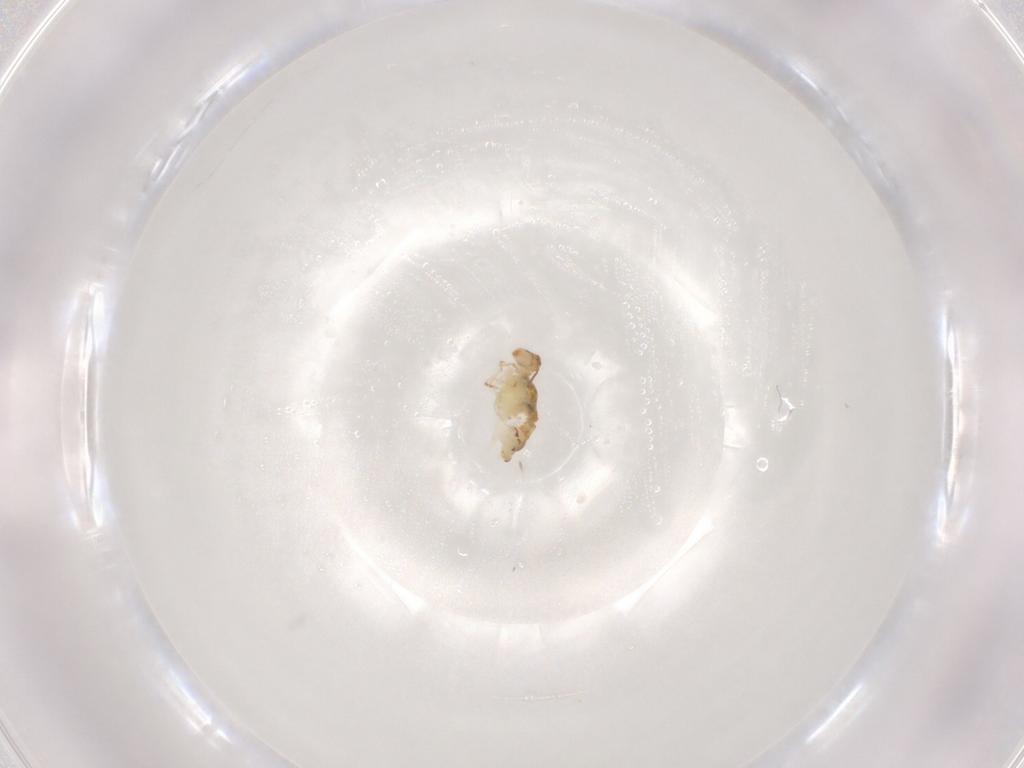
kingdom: Animalia
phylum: Arthropoda
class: Collembola
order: Symphypleona
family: Bourletiellidae
